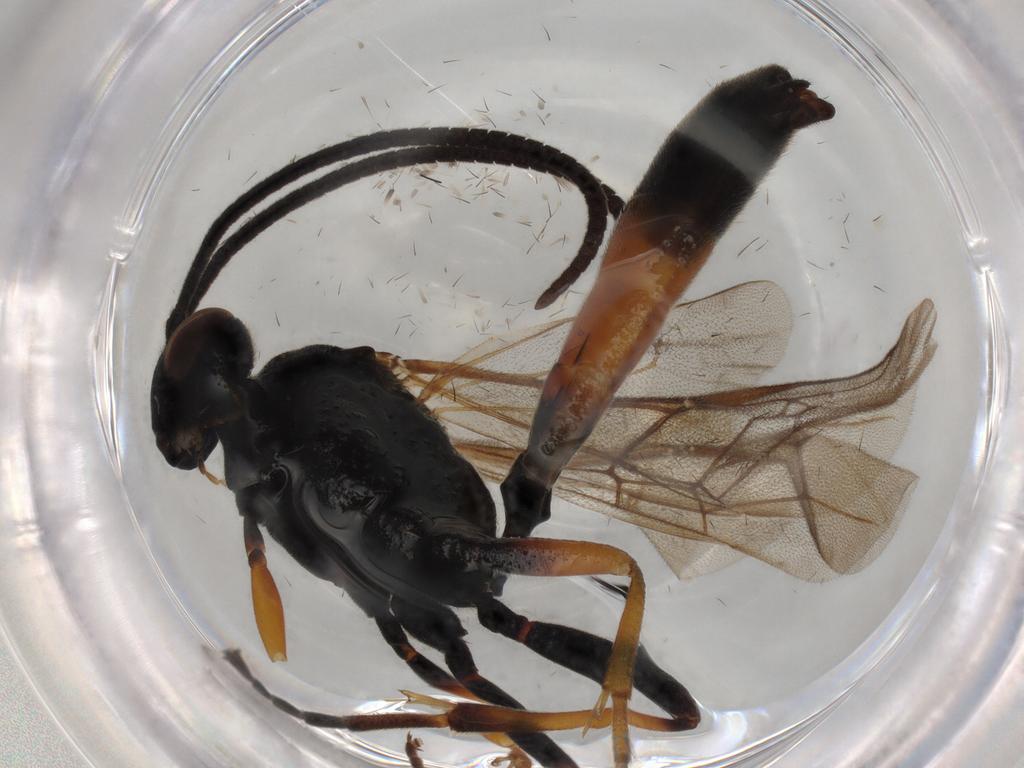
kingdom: Animalia
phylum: Arthropoda
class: Insecta
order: Hymenoptera
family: Ichneumonidae
